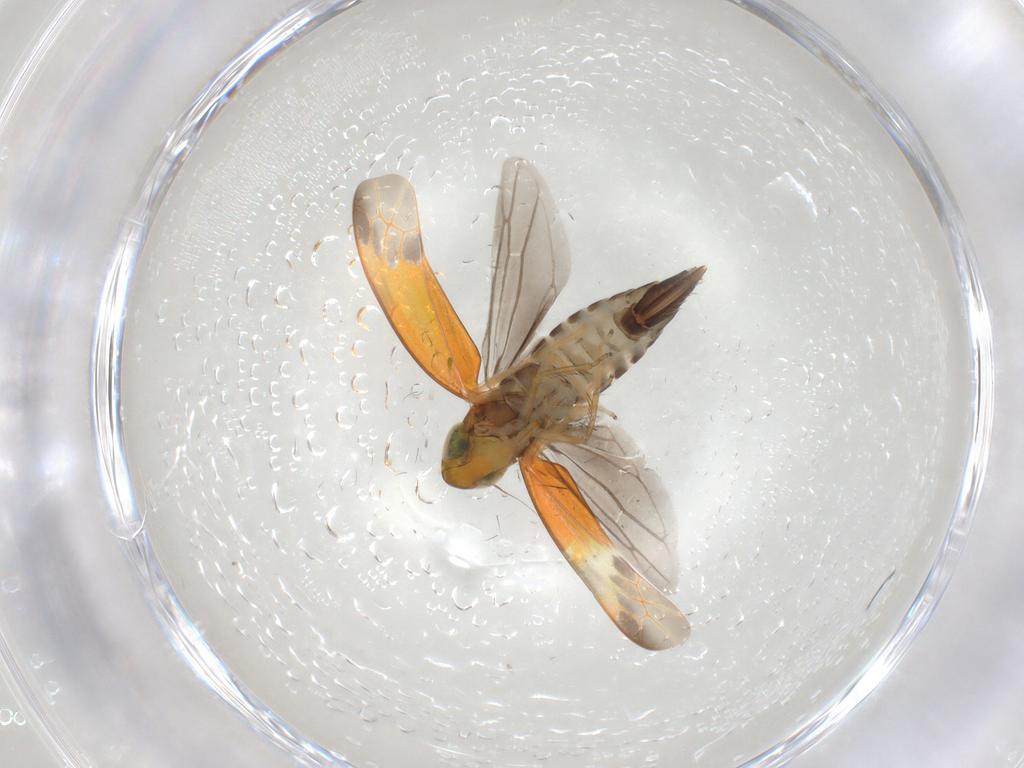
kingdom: Animalia
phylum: Arthropoda
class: Insecta
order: Hemiptera
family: Cicadellidae
